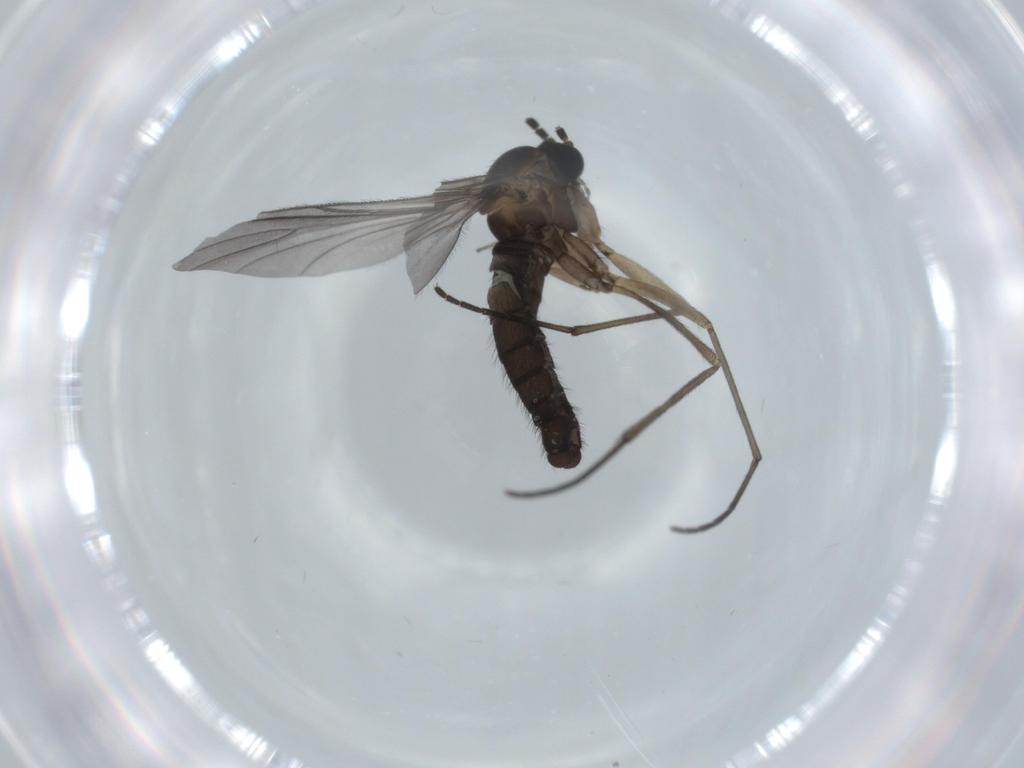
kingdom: Animalia
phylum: Arthropoda
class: Insecta
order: Diptera
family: Sciaridae
